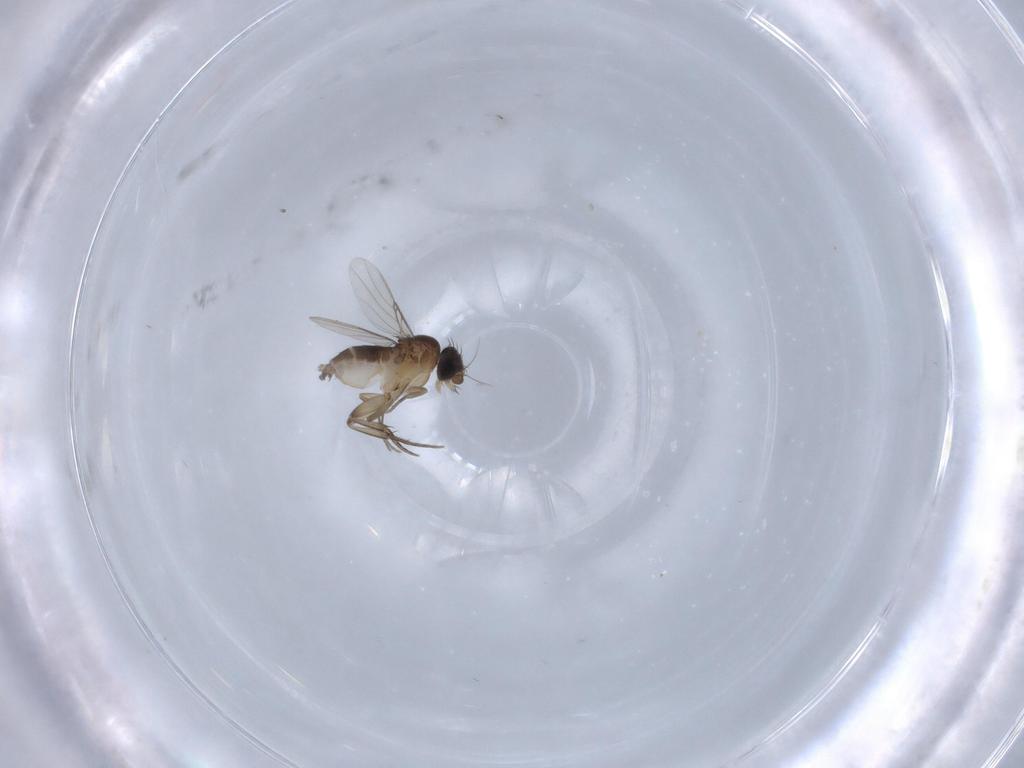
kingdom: Animalia
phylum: Arthropoda
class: Insecta
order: Diptera
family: Phoridae
